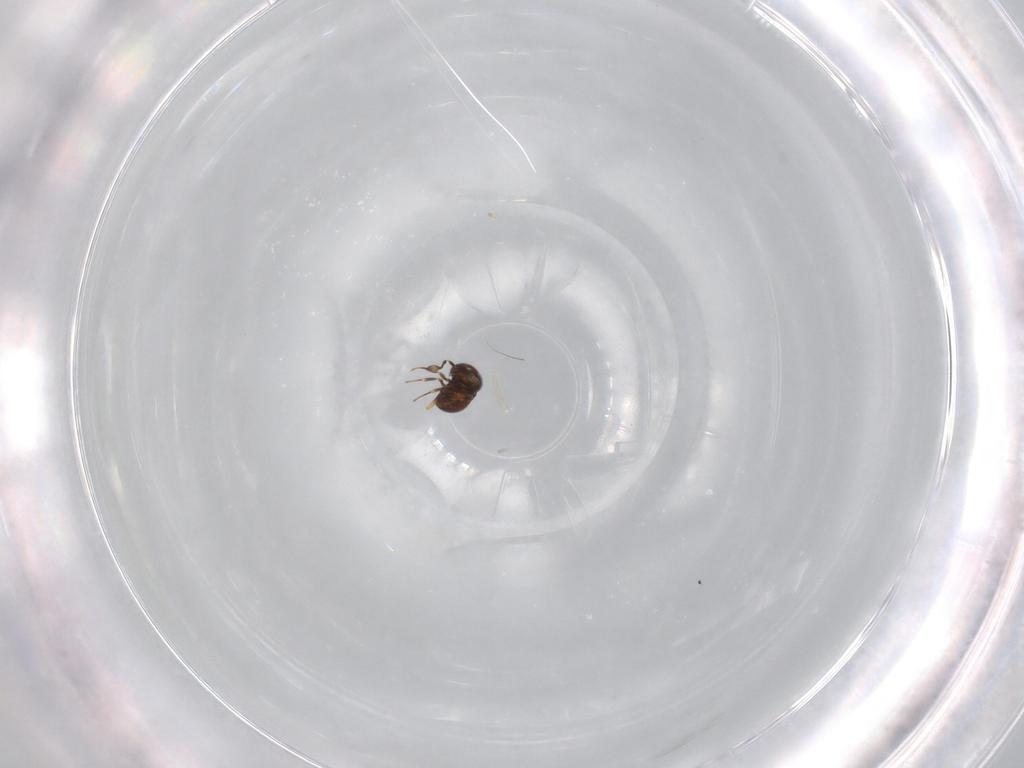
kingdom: Animalia
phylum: Arthropoda
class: Insecta
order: Hymenoptera
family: Scelionidae
